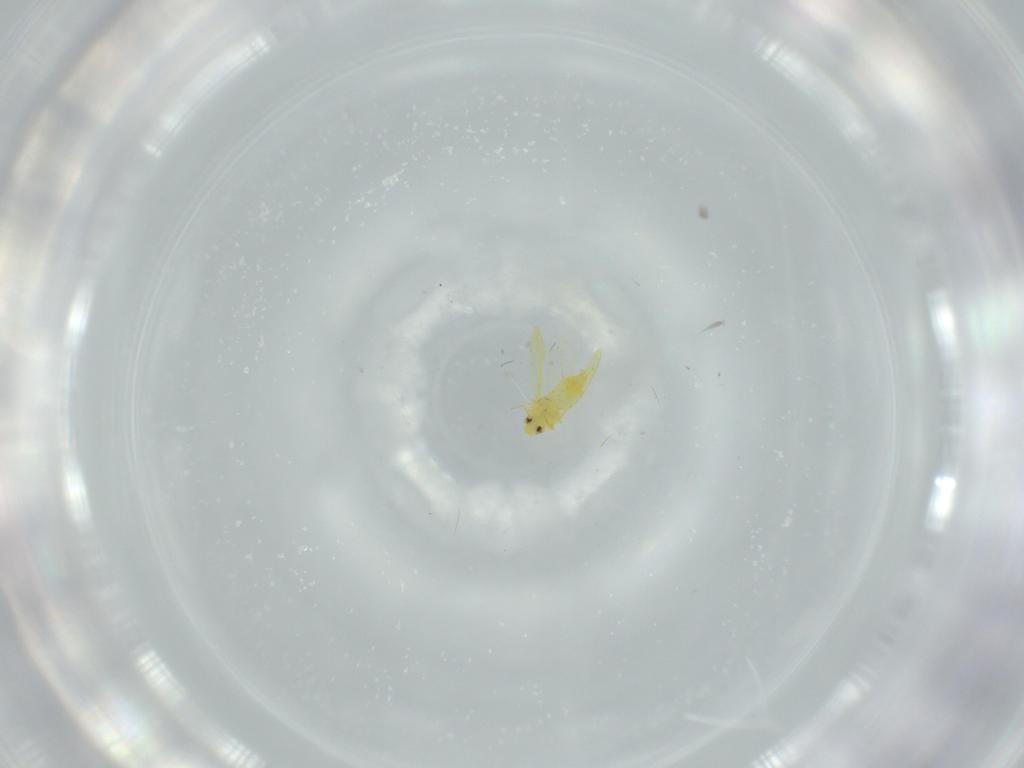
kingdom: Animalia
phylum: Arthropoda
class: Insecta
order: Hemiptera
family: Aleyrodidae
